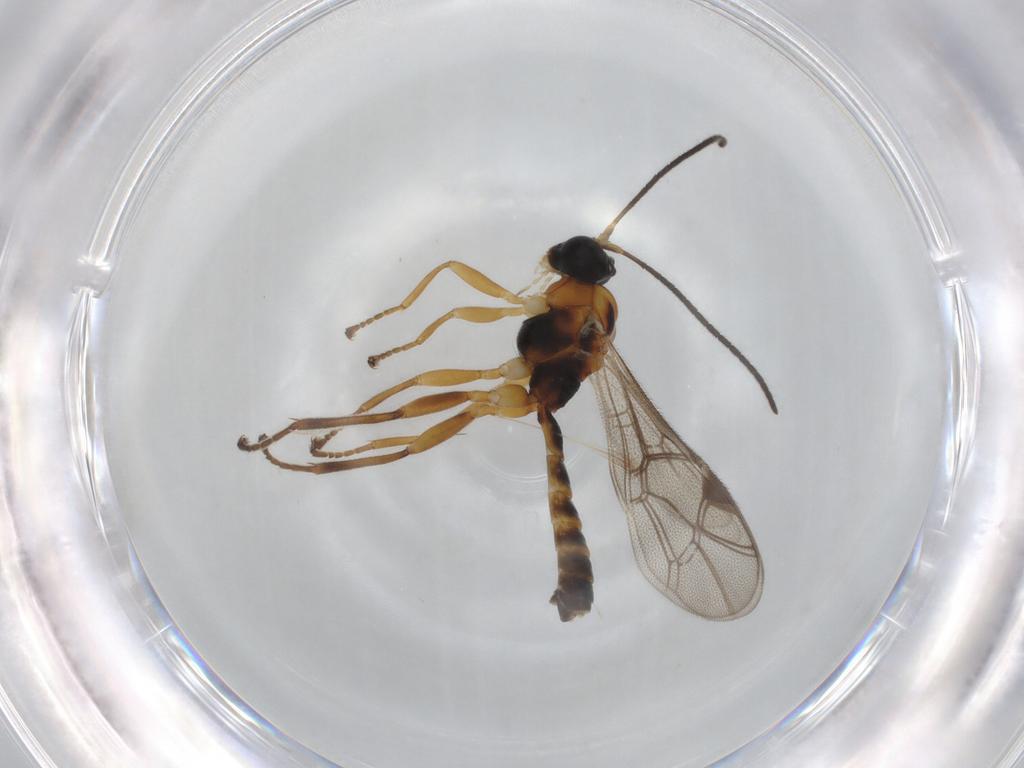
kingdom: Animalia
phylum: Arthropoda
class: Insecta
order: Hymenoptera
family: Ichneumonidae
